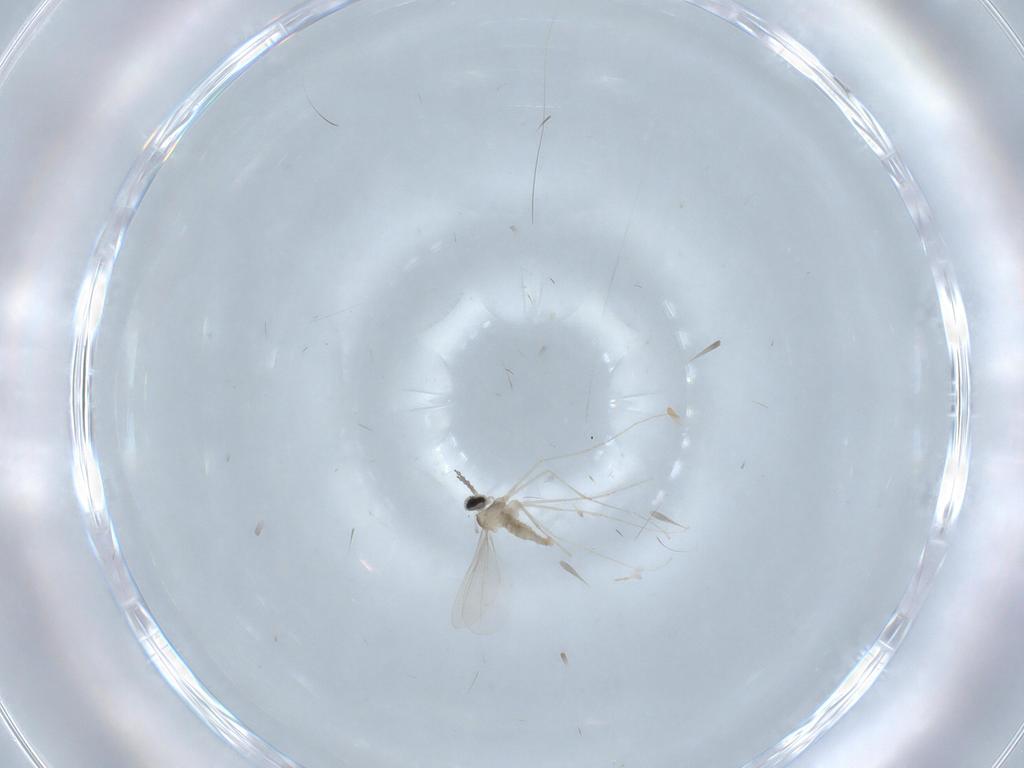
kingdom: Animalia
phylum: Arthropoda
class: Insecta
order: Diptera
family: Cecidomyiidae
